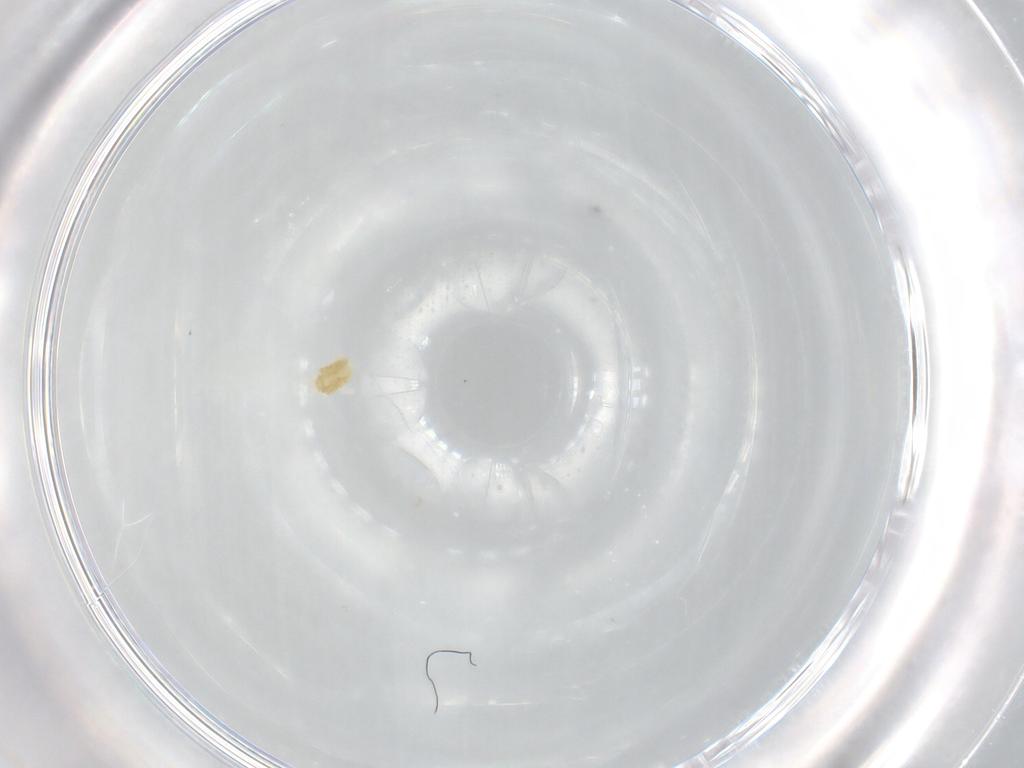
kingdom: Animalia
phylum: Arthropoda
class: Arachnida
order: Trombidiformes
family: Eupodidae
